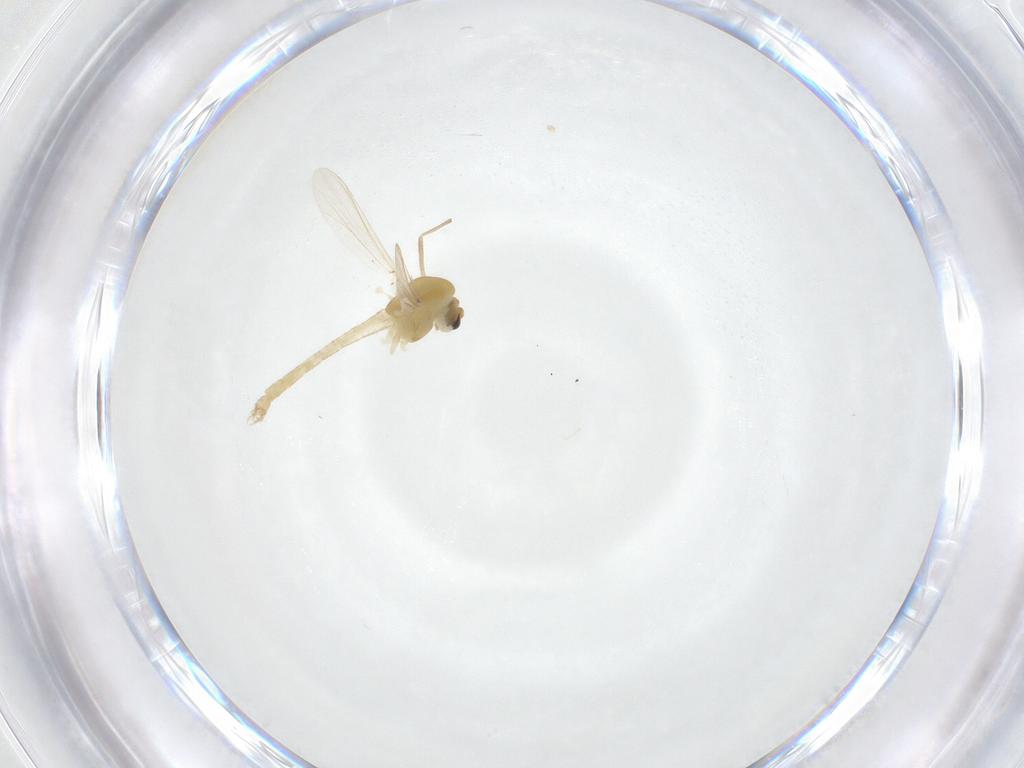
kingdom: Animalia
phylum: Arthropoda
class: Insecta
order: Diptera
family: Chironomidae
